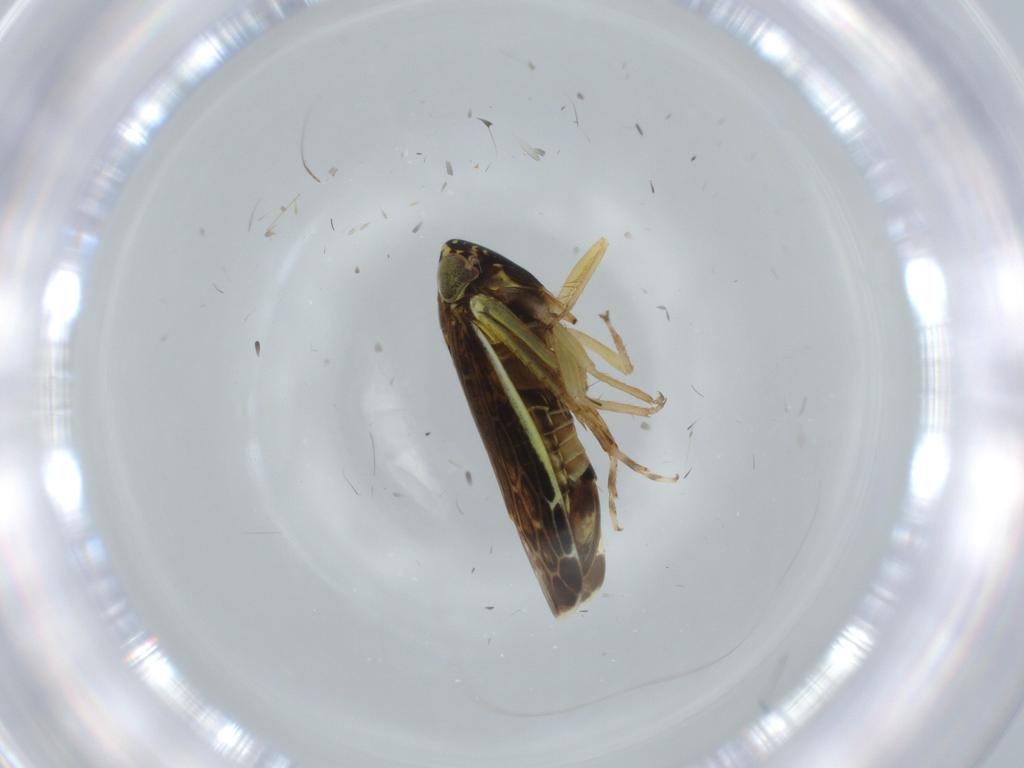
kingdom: Animalia
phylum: Arthropoda
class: Insecta
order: Hemiptera
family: Cicadellidae
